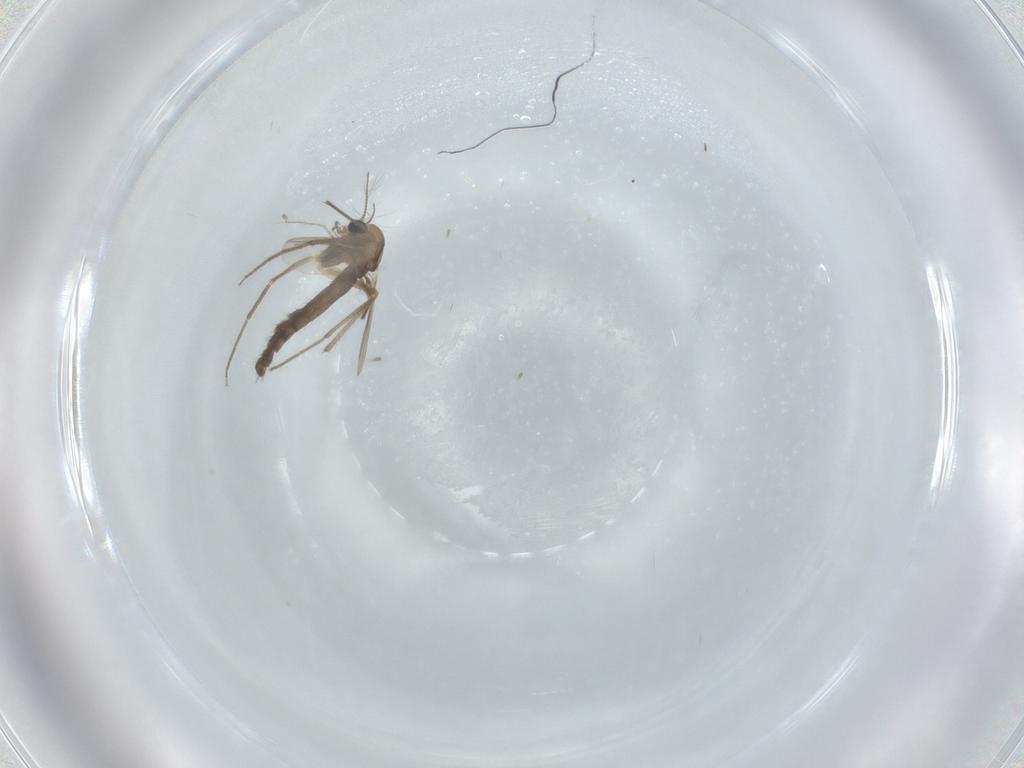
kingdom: Animalia
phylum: Arthropoda
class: Insecta
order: Diptera
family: Chironomidae
